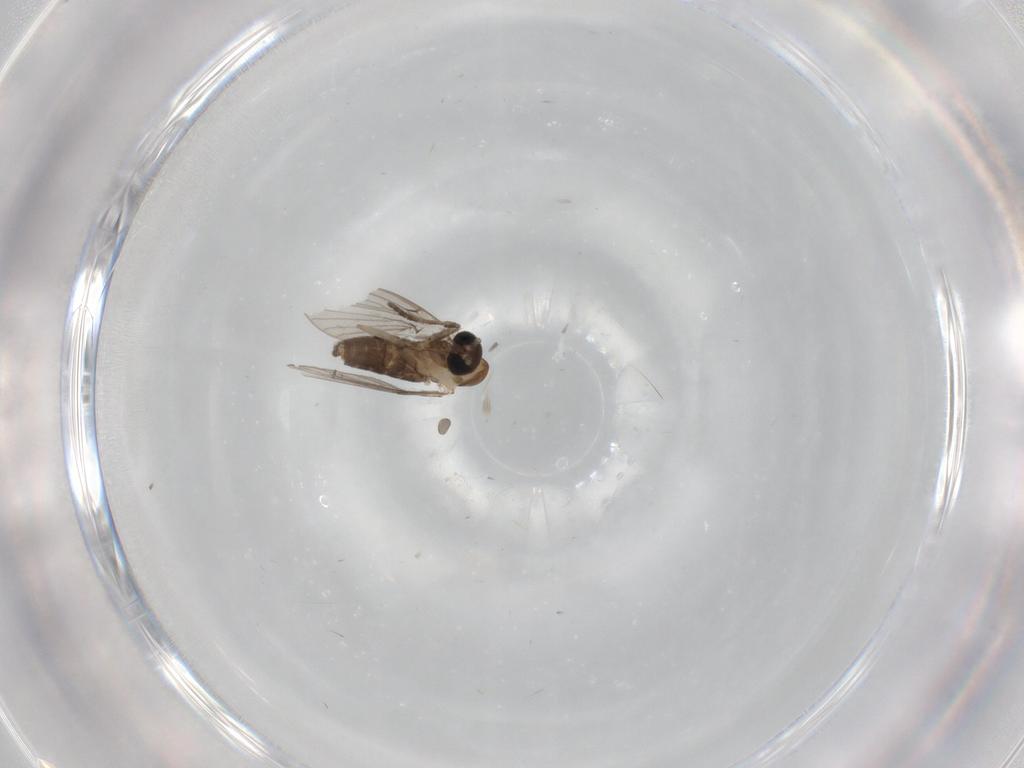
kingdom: Animalia
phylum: Arthropoda
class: Insecta
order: Diptera
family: Psychodidae
